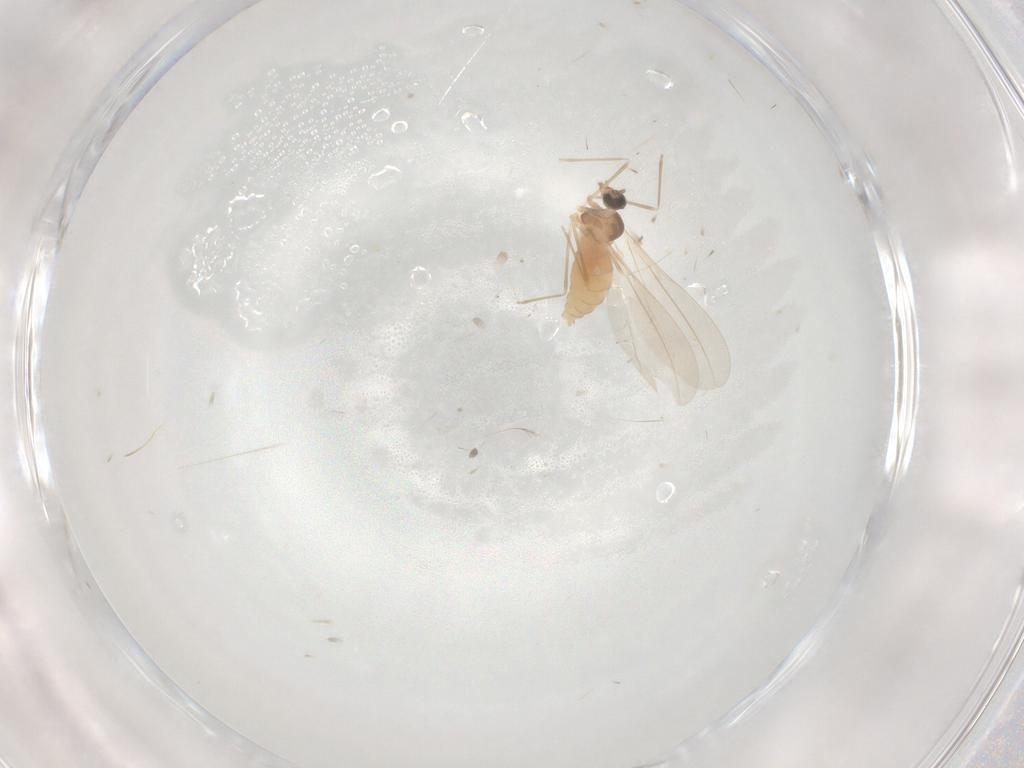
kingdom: Animalia
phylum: Arthropoda
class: Insecta
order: Diptera
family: Cecidomyiidae
